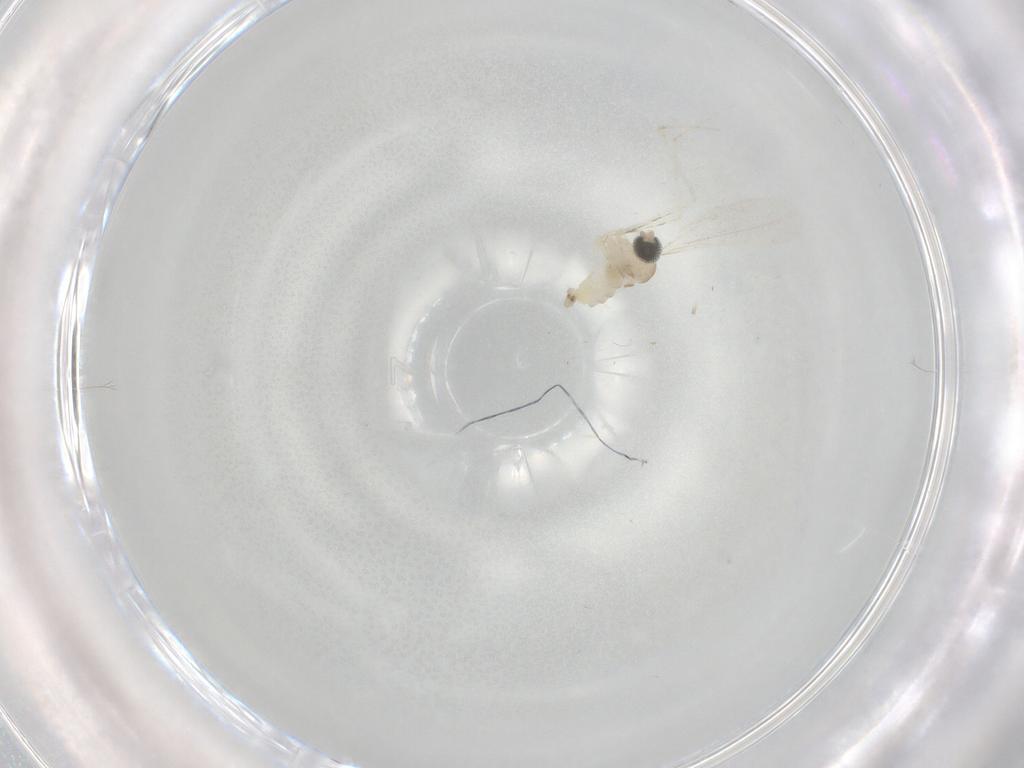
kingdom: Animalia
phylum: Arthropoda
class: Insecta
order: Diptera
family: Cecidomyiidae
